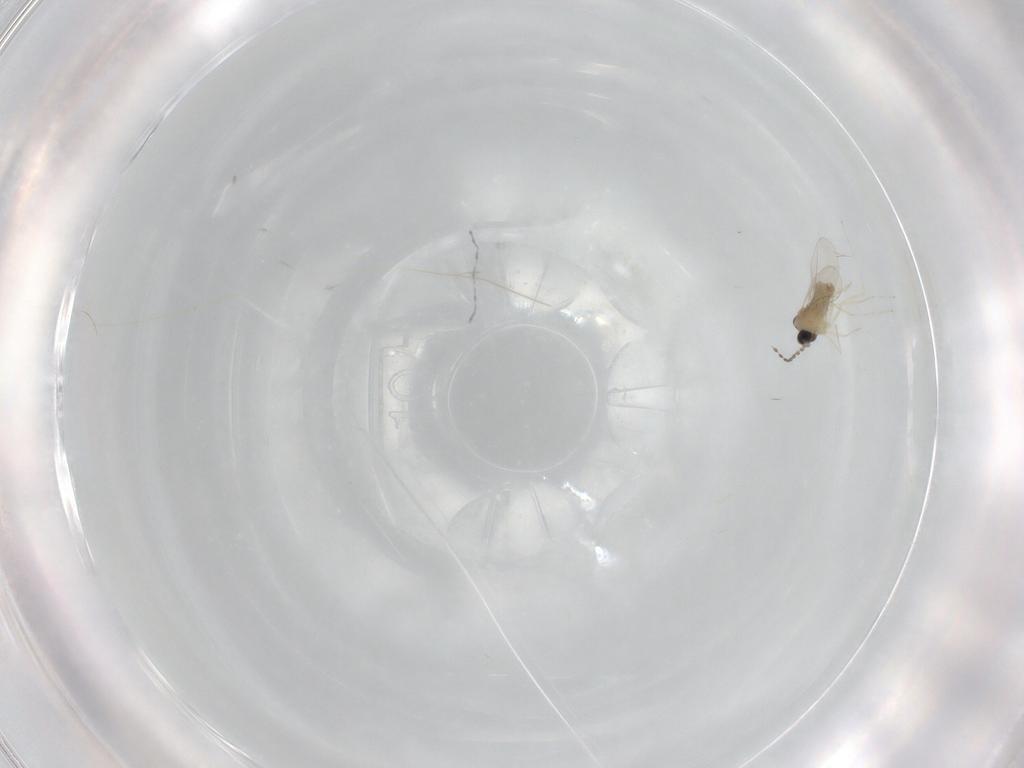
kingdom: Animalia
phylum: Arthropoda
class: Insecta
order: Diptera
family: Cecidomyiidae
